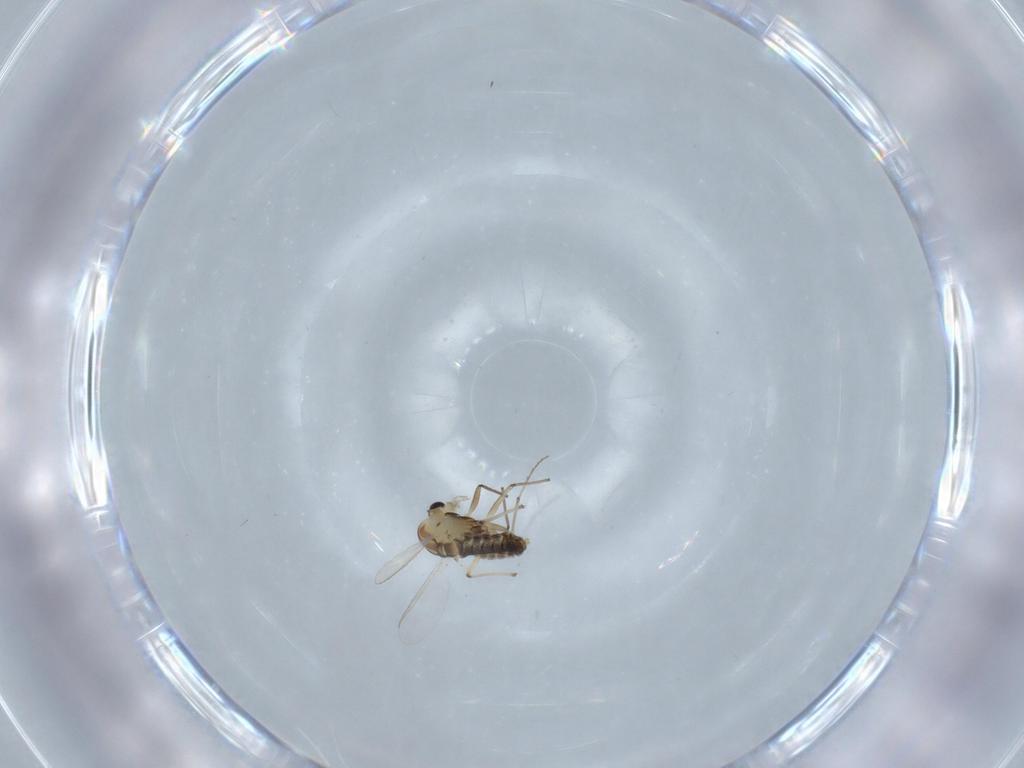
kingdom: Animalia
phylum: Arthropoda
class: Insecta
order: Diptera
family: Chironomidae
